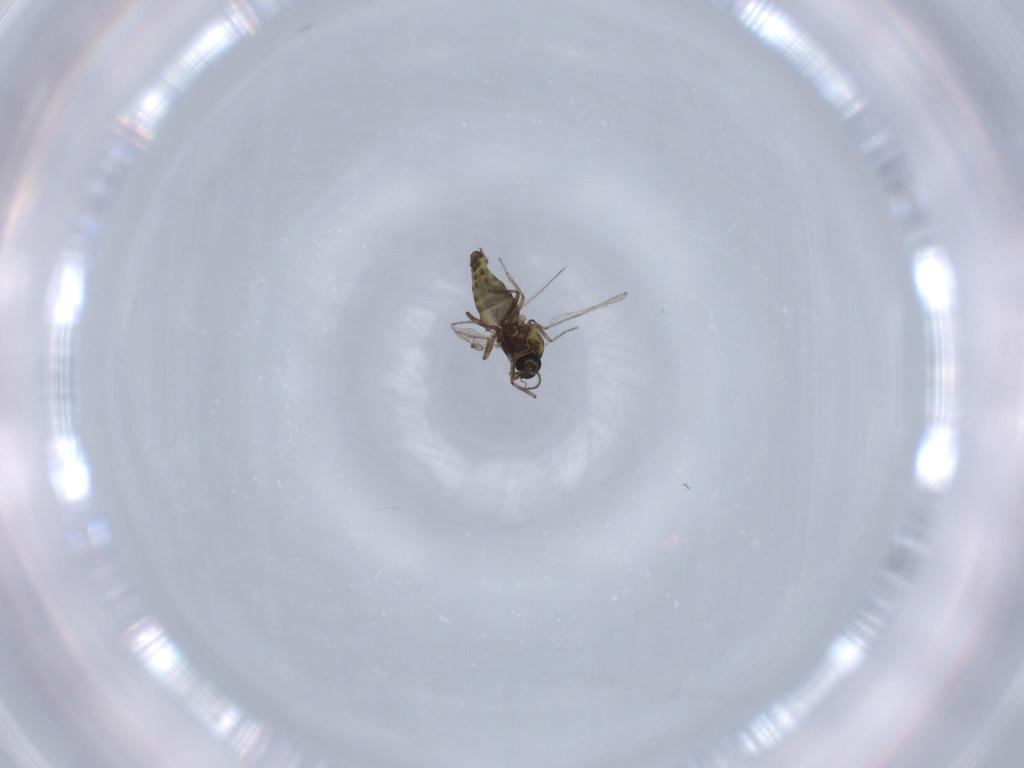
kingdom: Animalia
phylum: Arthropoda
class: Insecta
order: Diptera
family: Ceratopogonidae
